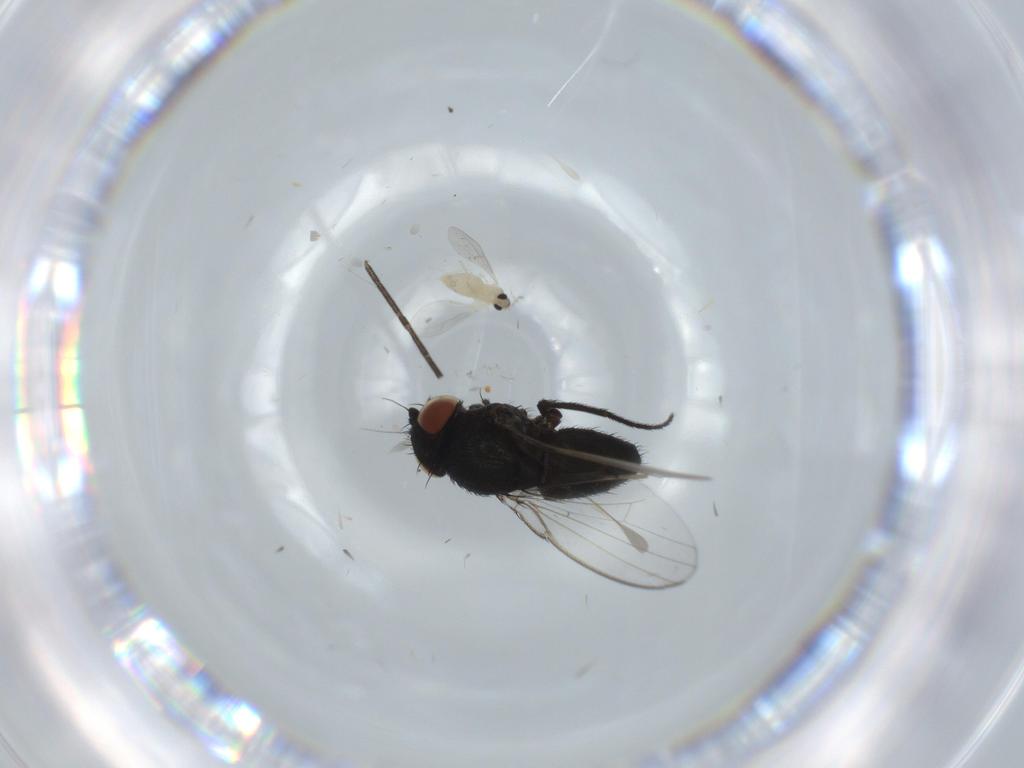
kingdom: Animalia
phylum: Arthropoda
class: Insecta
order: Diptera
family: Milichiidae
